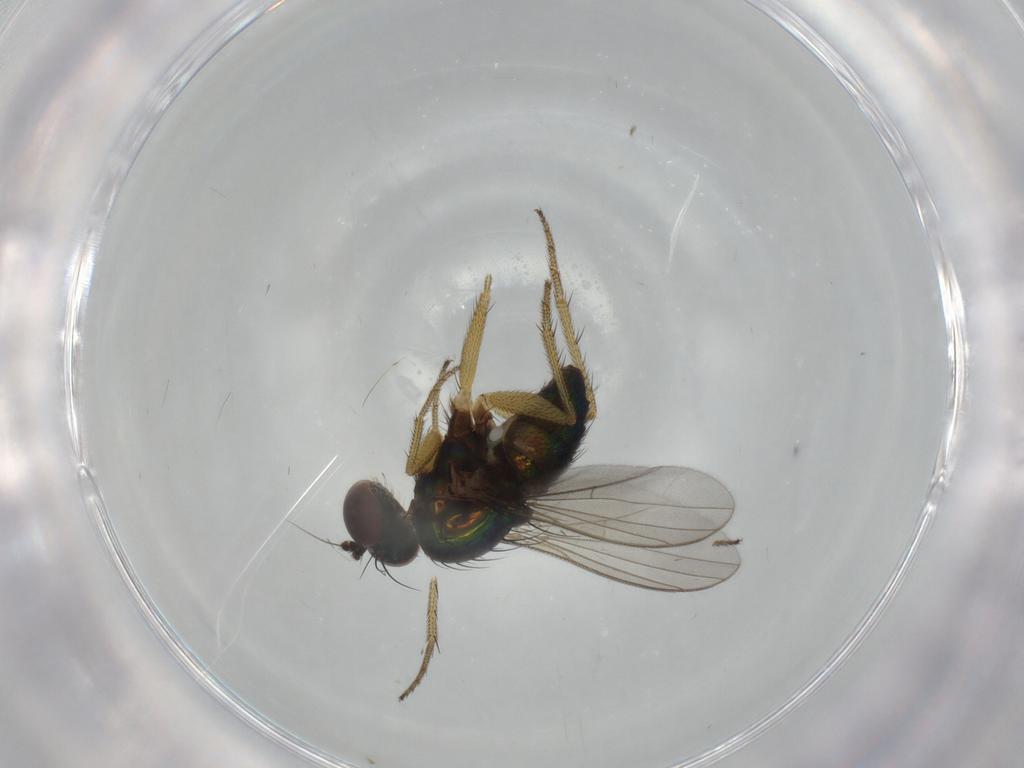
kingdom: Animalia
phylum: Arthropoda
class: Insecta
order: Diptera
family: Dolichopodidae
